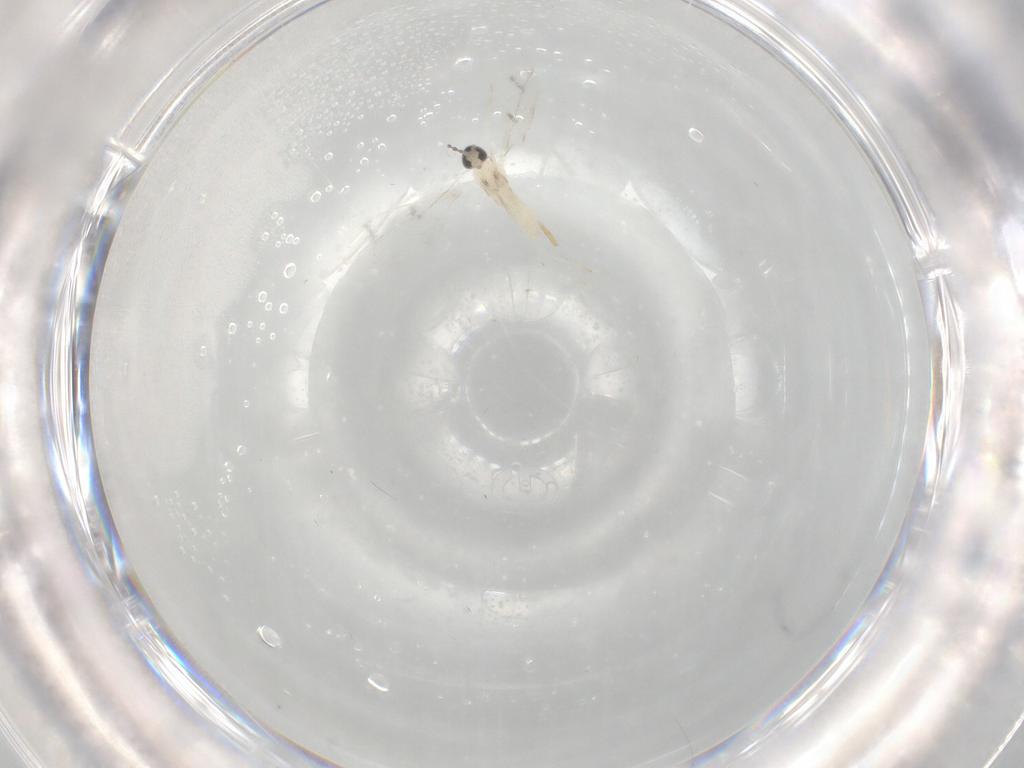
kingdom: Animalia
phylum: Arthropoda
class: Insecta
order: Diptera
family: Cecidomyiidae
